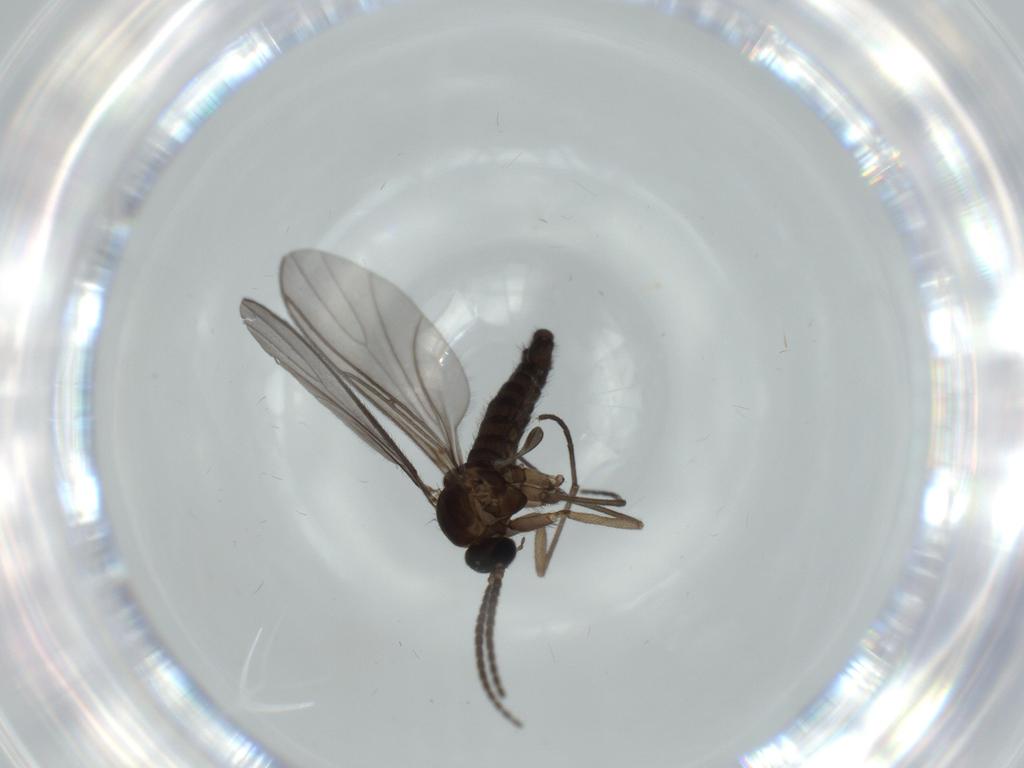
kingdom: Animalia
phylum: Arthropoda
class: Insecta
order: Diptera
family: Sciaridae
